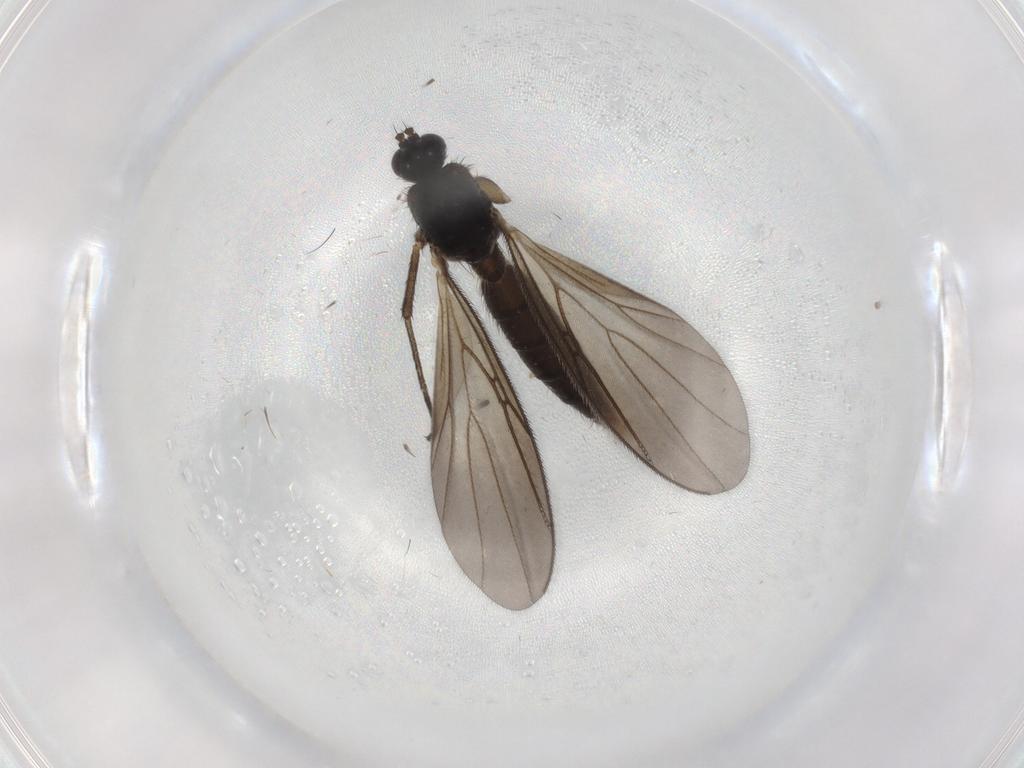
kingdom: Animalia
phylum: Arthropoda
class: Insecta
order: Diptera
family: Mycetophilidae
